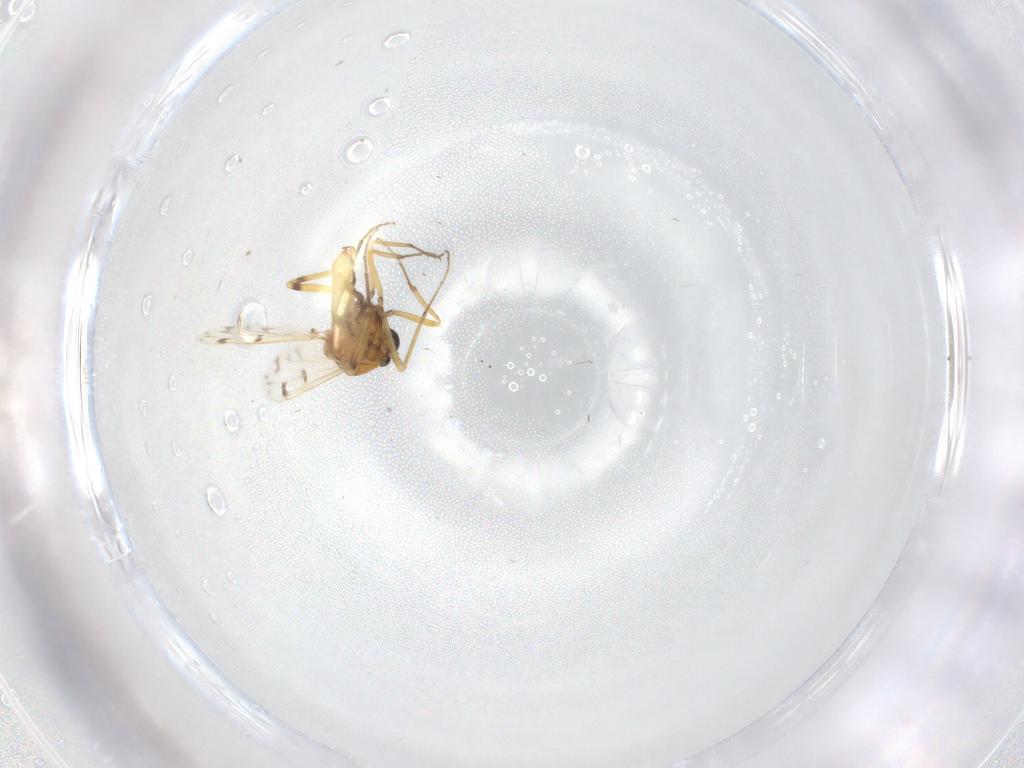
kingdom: Animalia
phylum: Arthropoda
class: Insecta
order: Diptera
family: Ceratopogonidae
